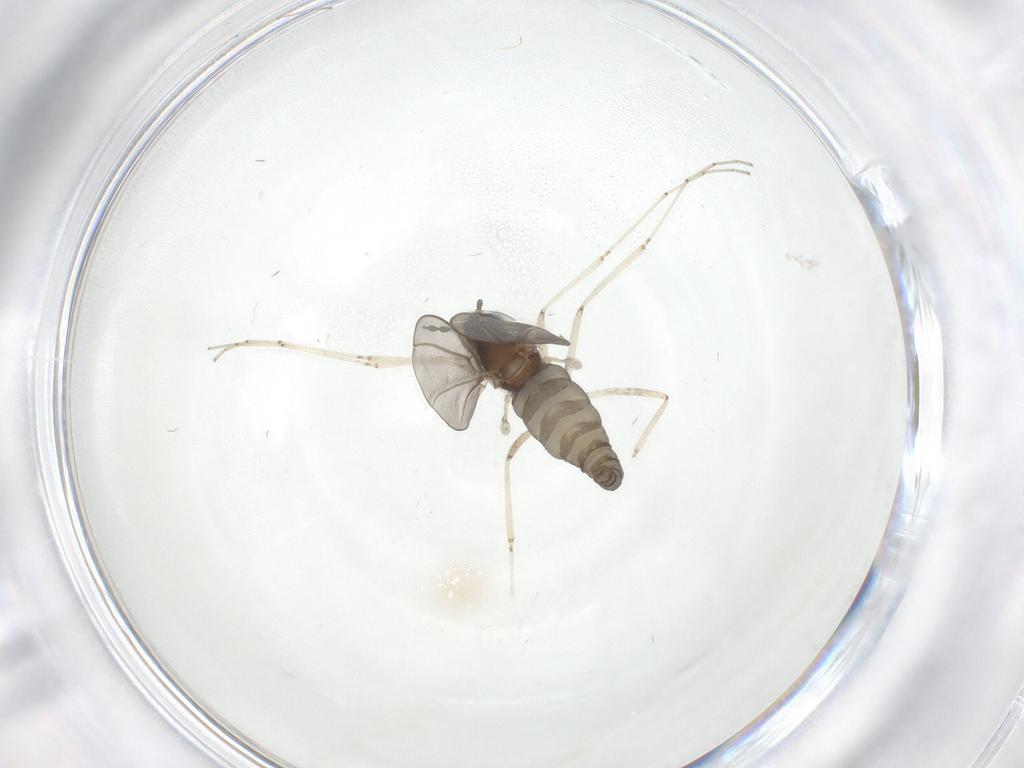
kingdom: Animalia
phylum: Arthropoda
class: Insecta
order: Diptera
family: Cecidomyiidae
